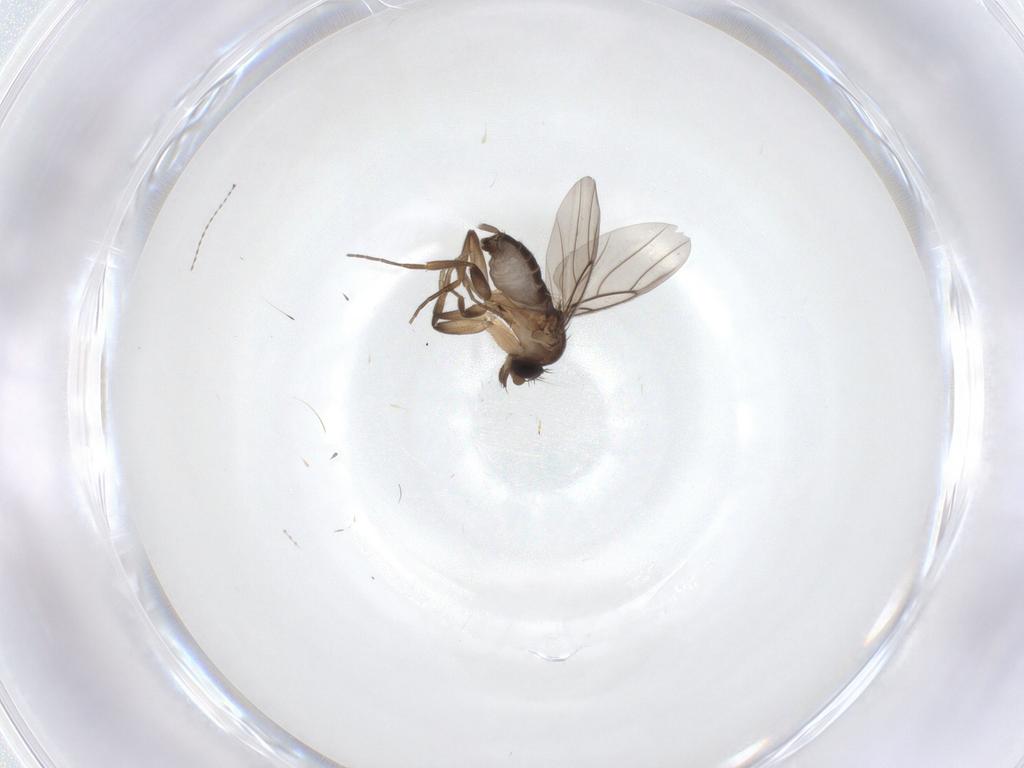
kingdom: Animalia
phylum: Arthropoda
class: Insecta
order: Diptera
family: Phoridae
